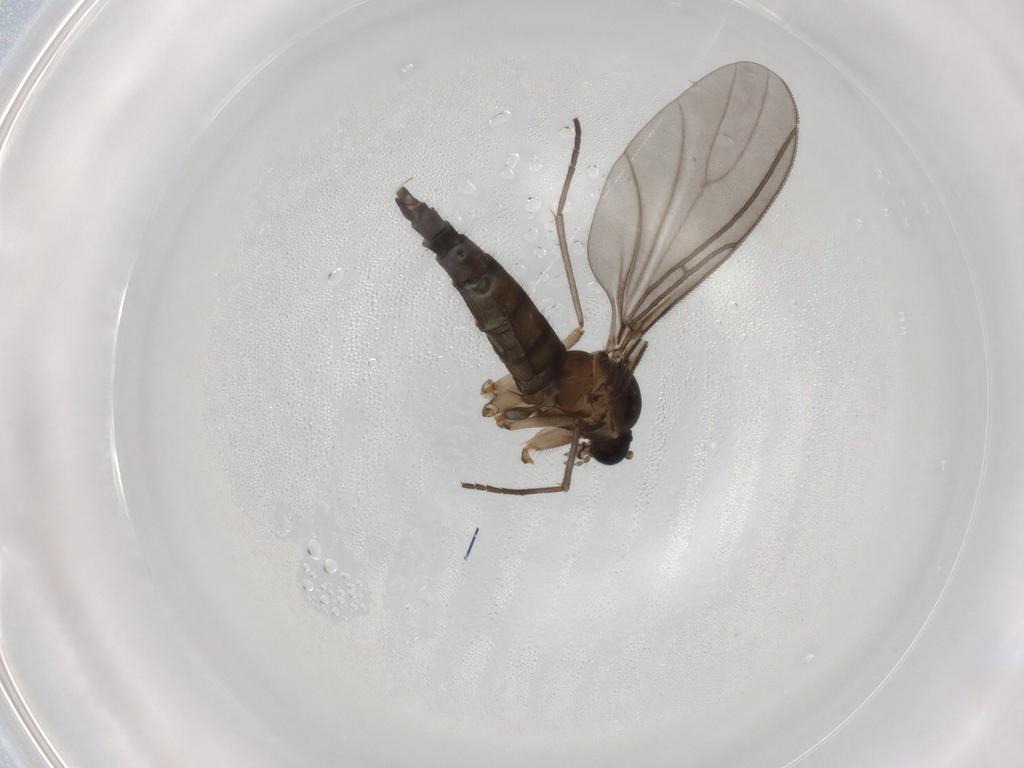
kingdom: Animalia
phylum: Arthropoda
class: Insecta
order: Diptera
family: Sciaridae
